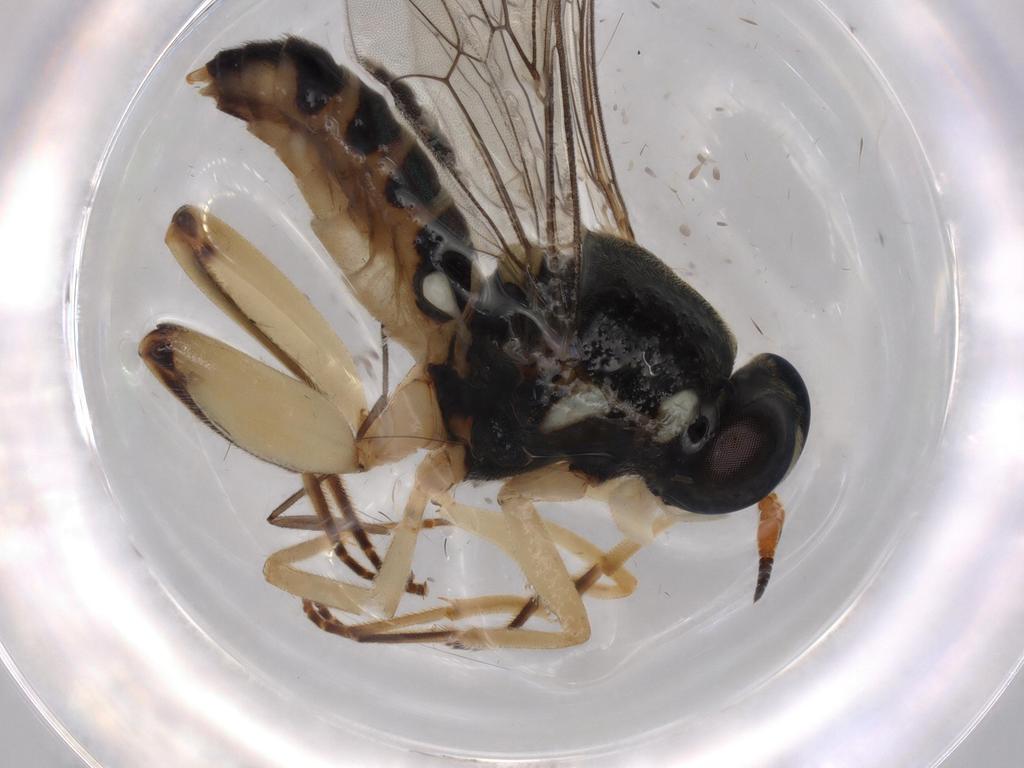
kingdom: Animalia
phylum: Arthropoda
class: Insecta
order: Diptera
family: Sciaridae
